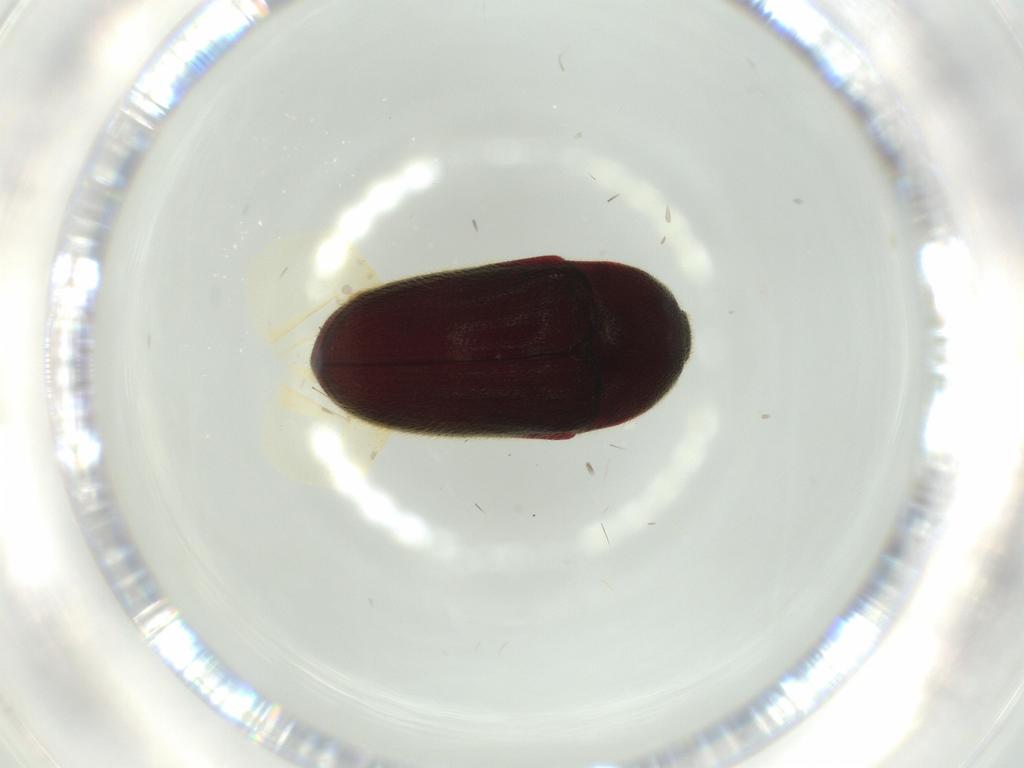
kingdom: Animalia
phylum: Arthropoda
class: Insecta
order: Coleoptera
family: Throscidae
